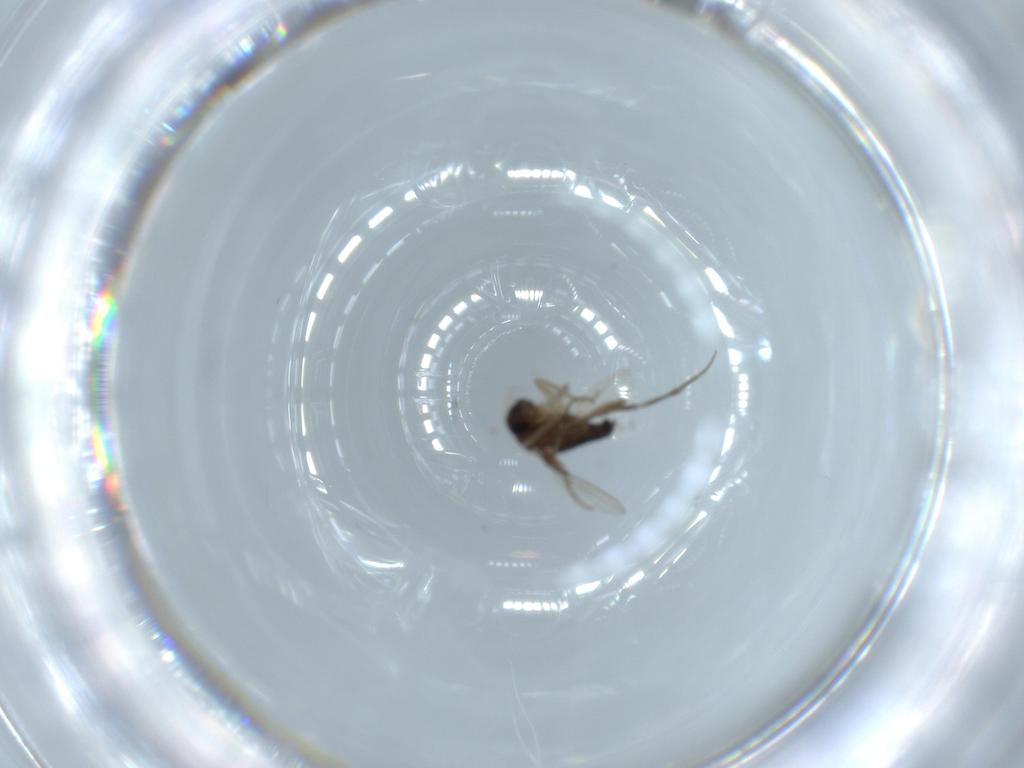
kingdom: Animalia
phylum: Arthropoda
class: Insecta
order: Diptera
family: Phoridae
